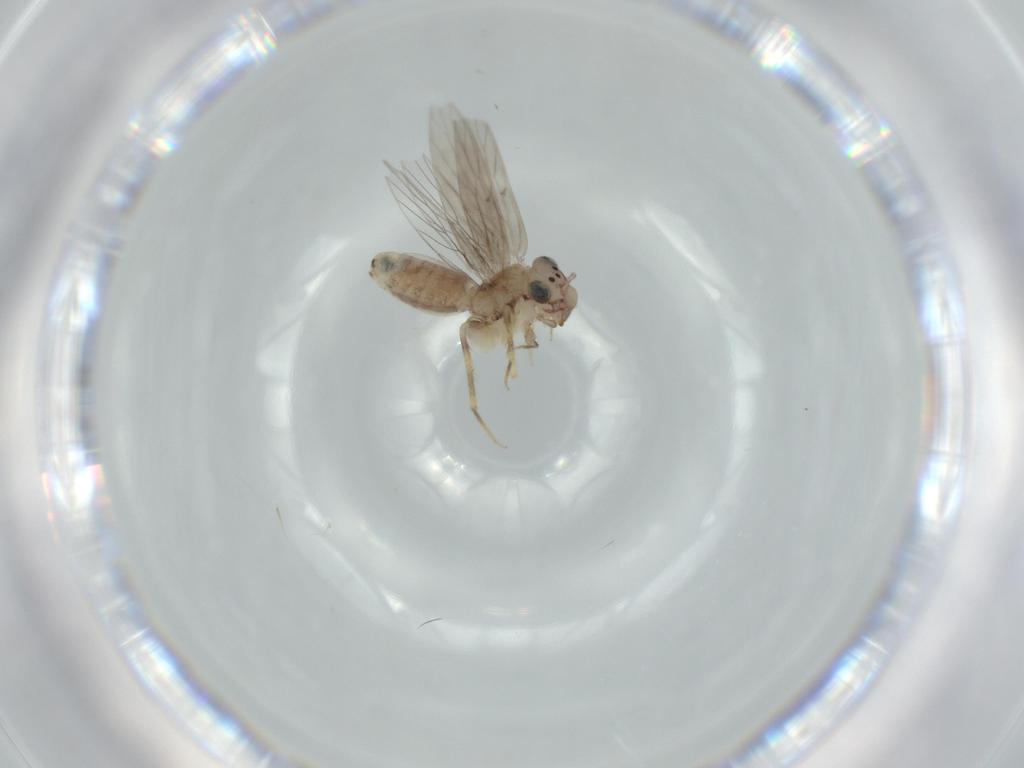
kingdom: Animalia
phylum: Arthropoda
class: Insecta
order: Psocodea
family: Lepidopsocidae
